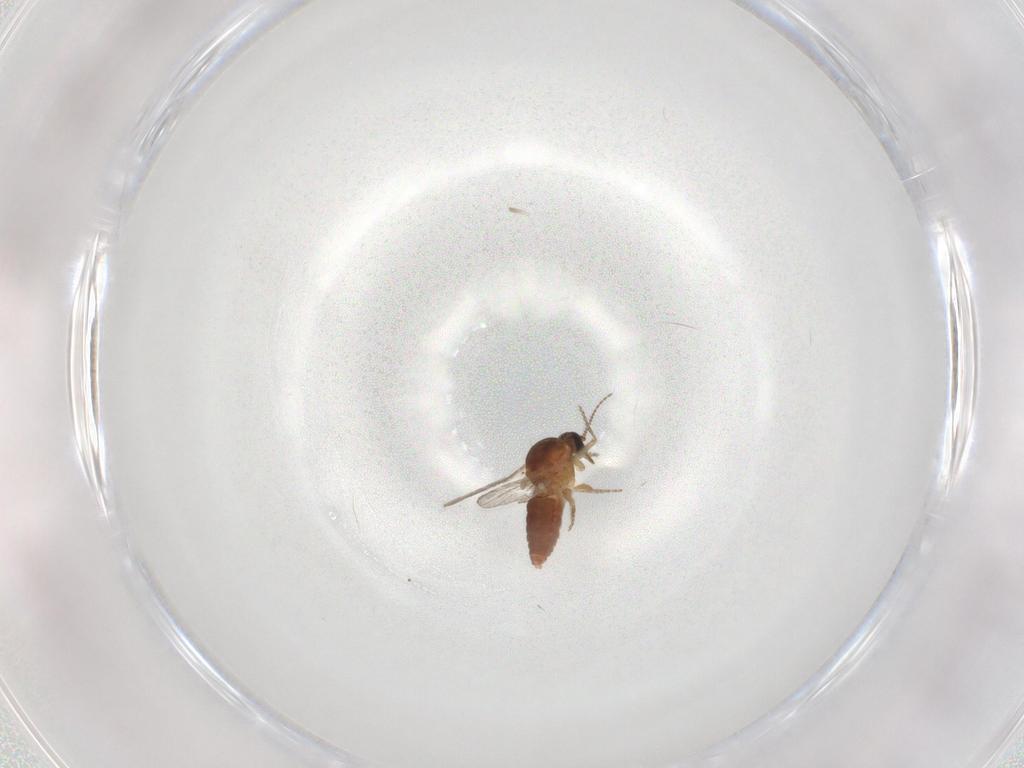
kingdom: Animalia
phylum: Arthropoda
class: Insecta
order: Diptera
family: Ceratopogonidae
